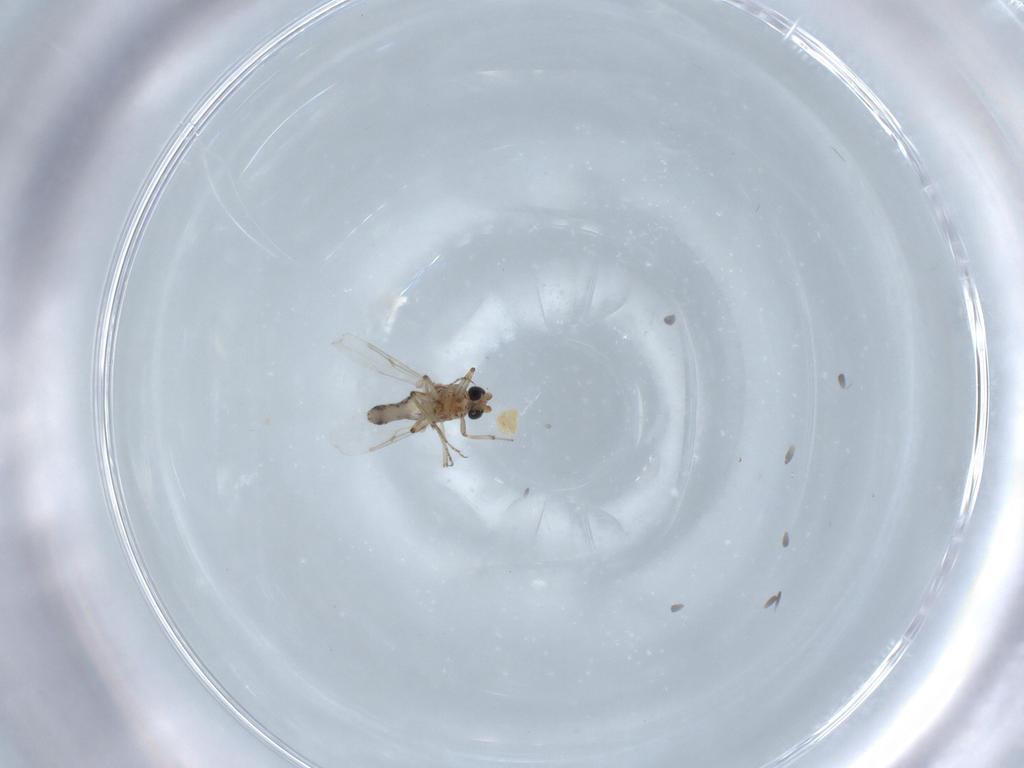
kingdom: Animalia
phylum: Arthropoda
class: Insecta
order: Diptera
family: Ceratopogonidae
